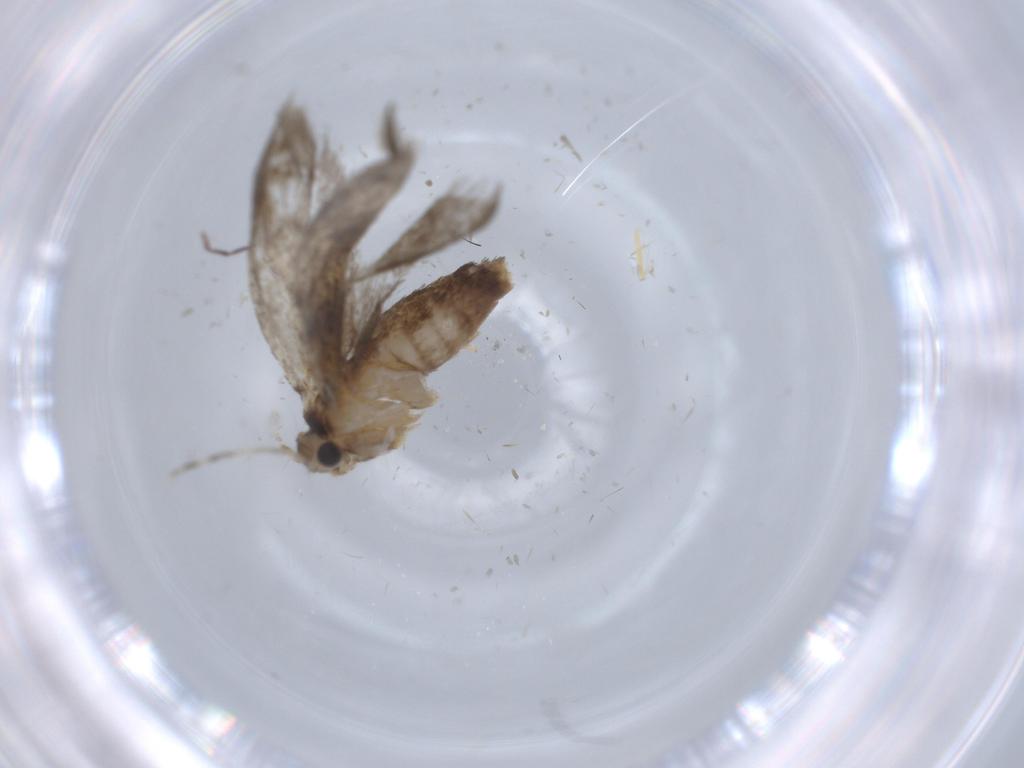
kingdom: Animalia
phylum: Arthropoda
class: Insecta
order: Lepidoptera
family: Tineidae
